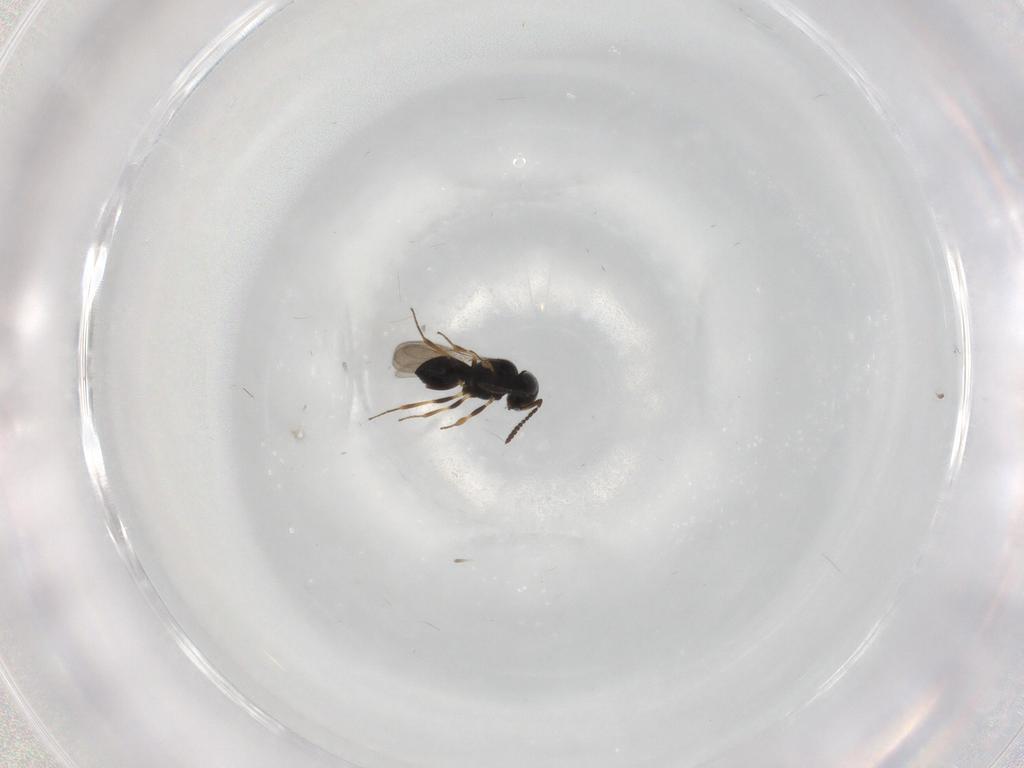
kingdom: Animalia
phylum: Arthropoda
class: Insecta
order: Hymenoptera
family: Scelionidae
